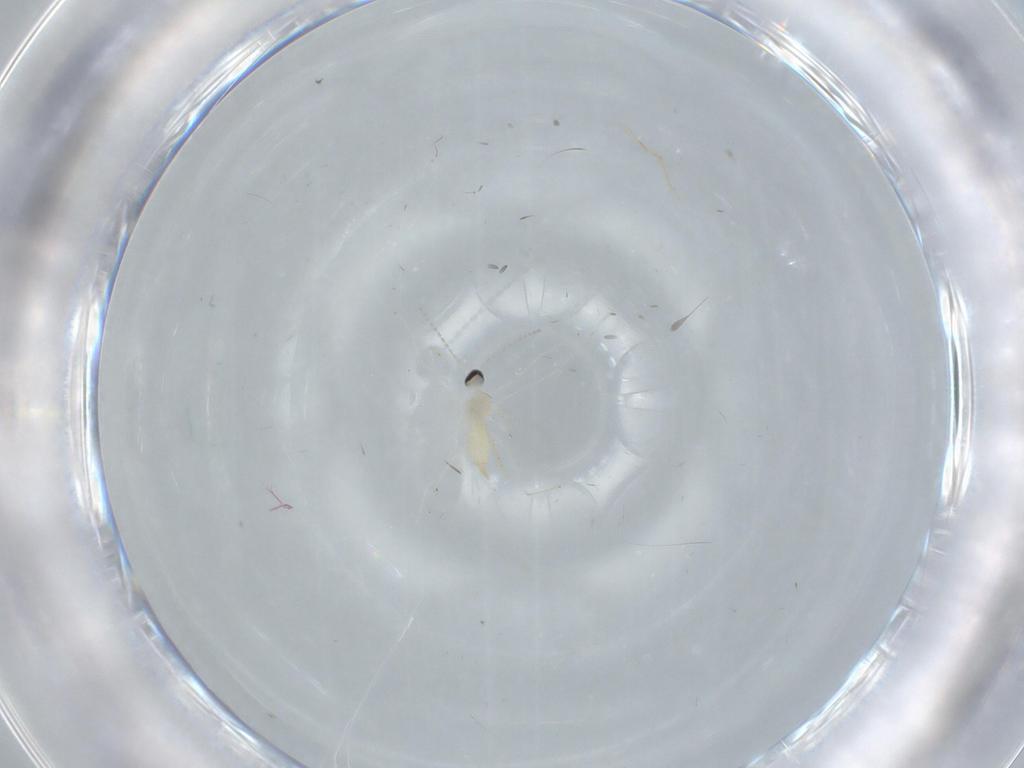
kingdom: Animalia
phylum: Arthropoda
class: Insecta
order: Diptera
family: Cecidomyiidae
